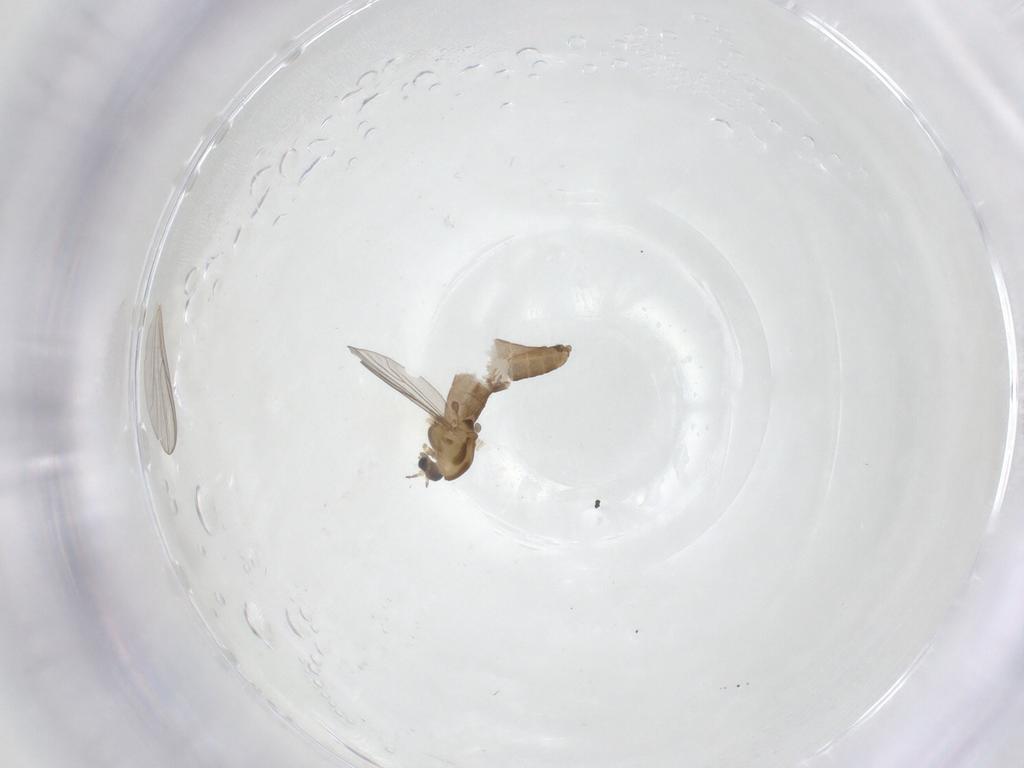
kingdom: Animalia
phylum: Arthropoda
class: Insecta
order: Diptera
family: Chironomidae
